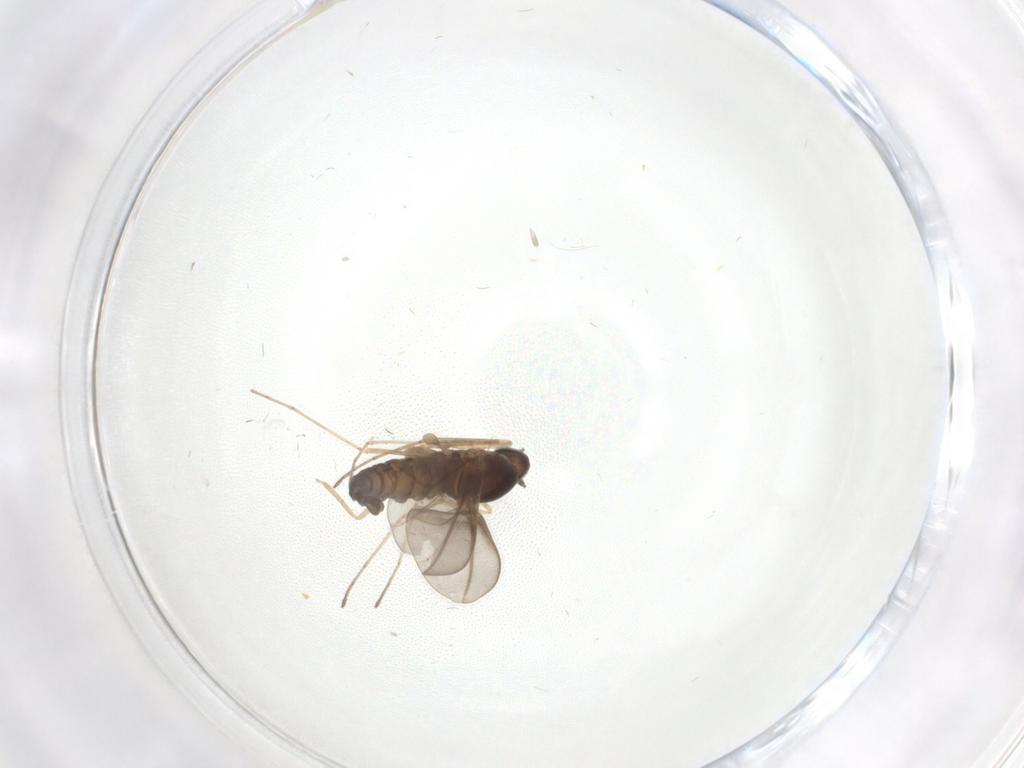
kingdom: Animalia
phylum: Arthropoda
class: Insecta
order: Diptera
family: Cecidomyiidae
